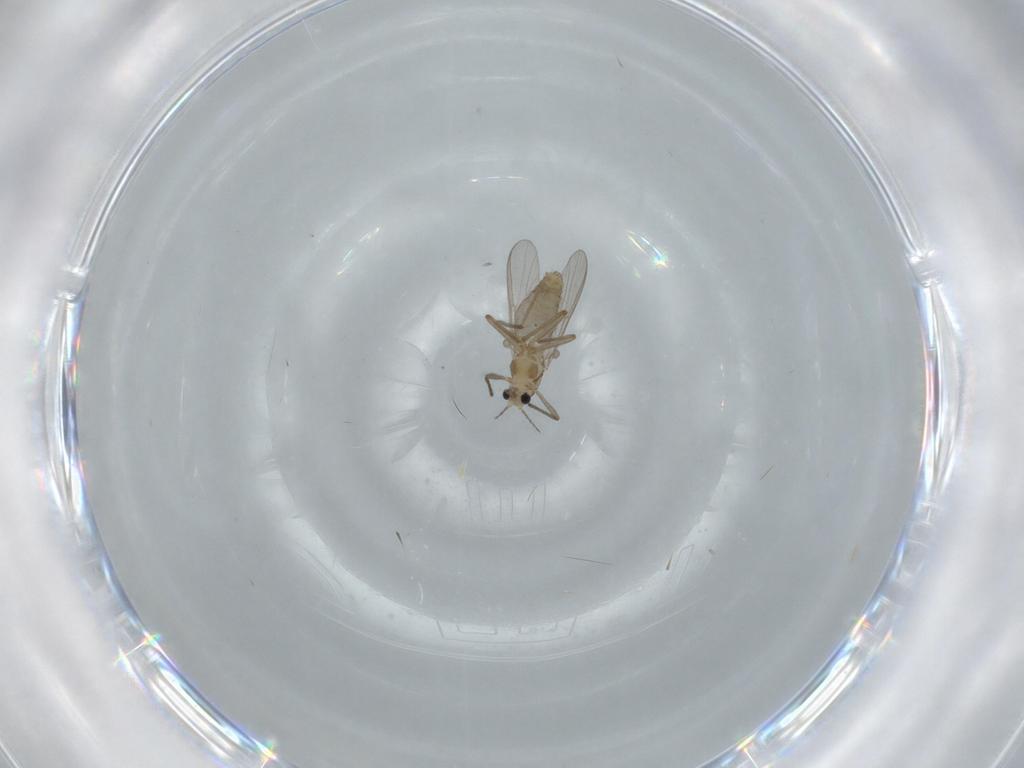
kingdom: Animalia
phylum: Arthropoda
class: Insecta
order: Diptera
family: Chironomidae
